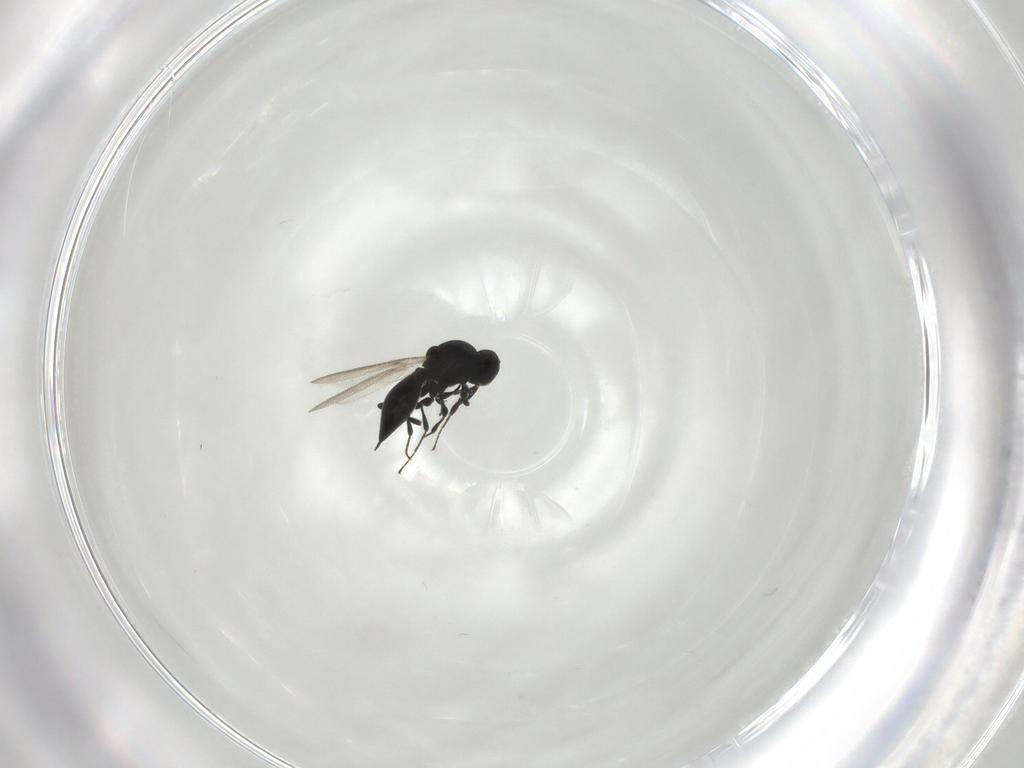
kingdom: Animalia
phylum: Arthropoda
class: Insecta
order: Hymenoptera
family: Platygastridae
